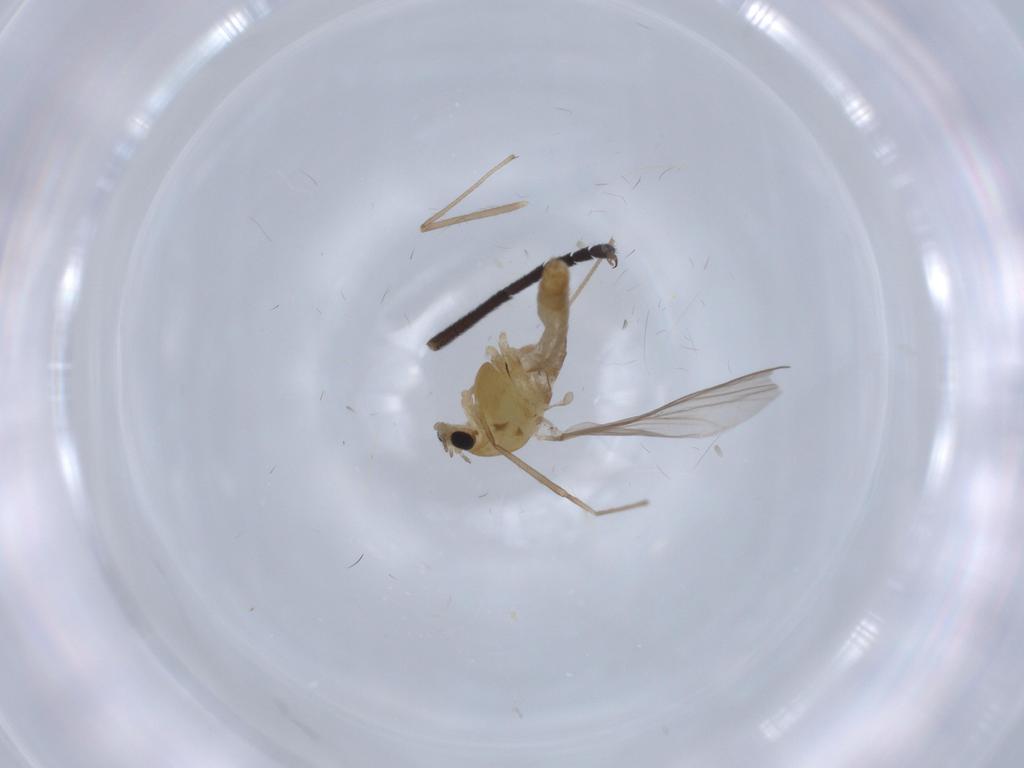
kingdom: Animalia
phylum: Arthropoda
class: Insecta
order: Diptera
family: Chironomidae
